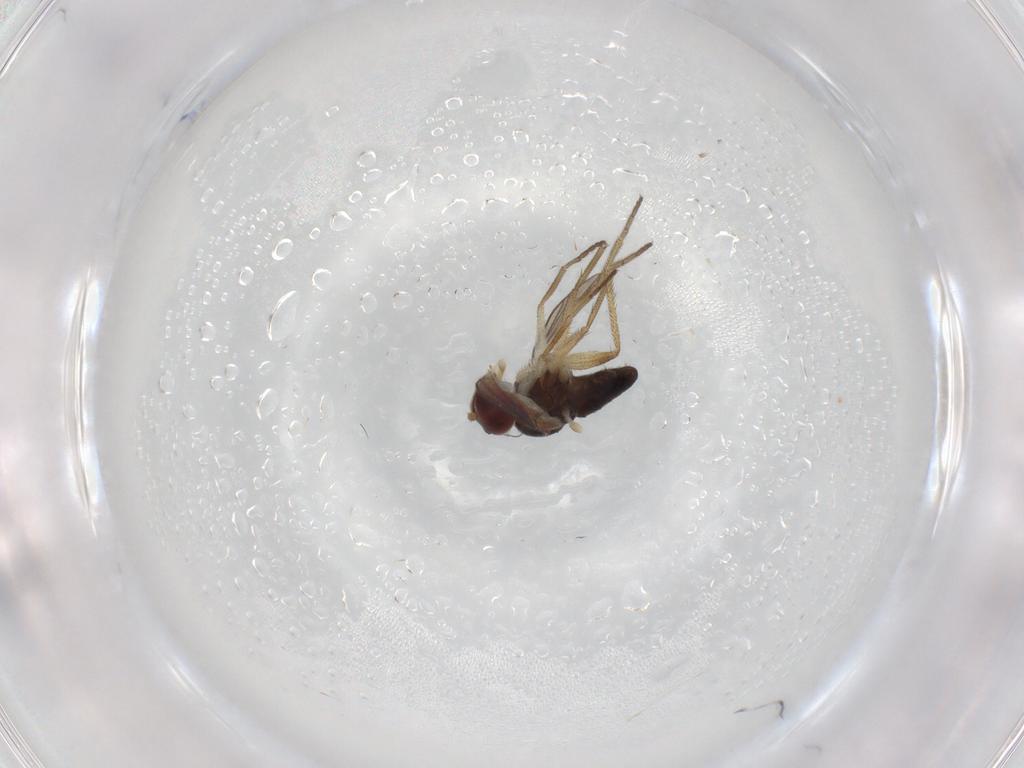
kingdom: Animalia
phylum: Arthropoda
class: Insecta
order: Diptera
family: Dolichopodidae
